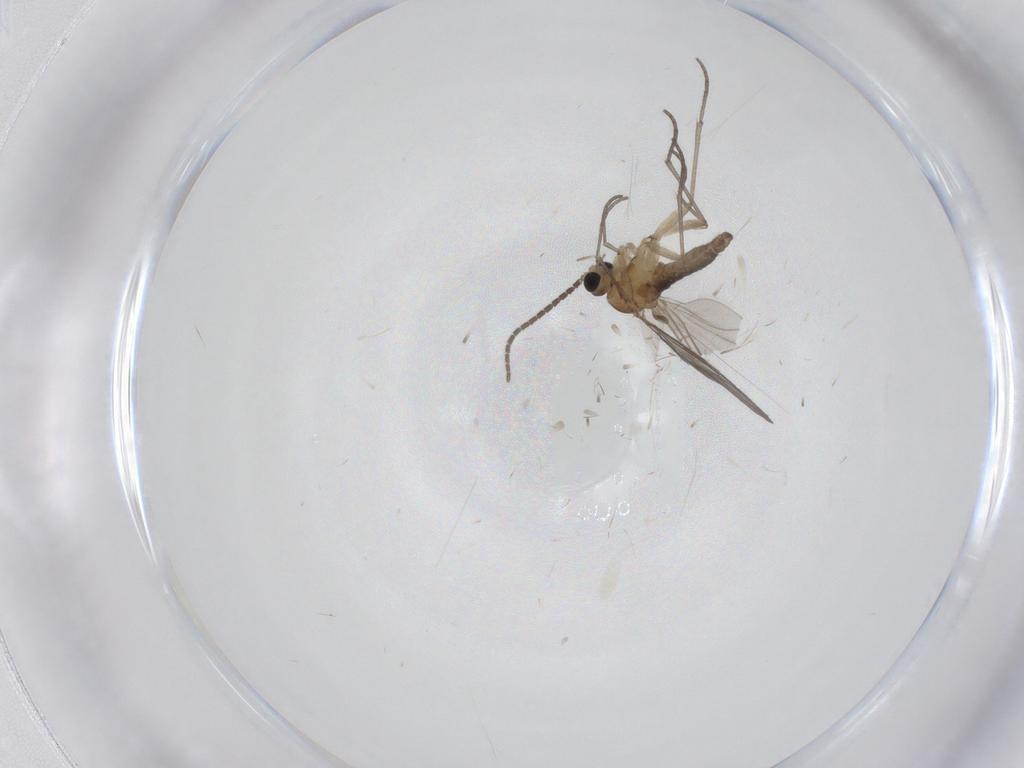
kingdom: Animalia
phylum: Arthropoda
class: Insecta
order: Diptera
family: Sciaridae
